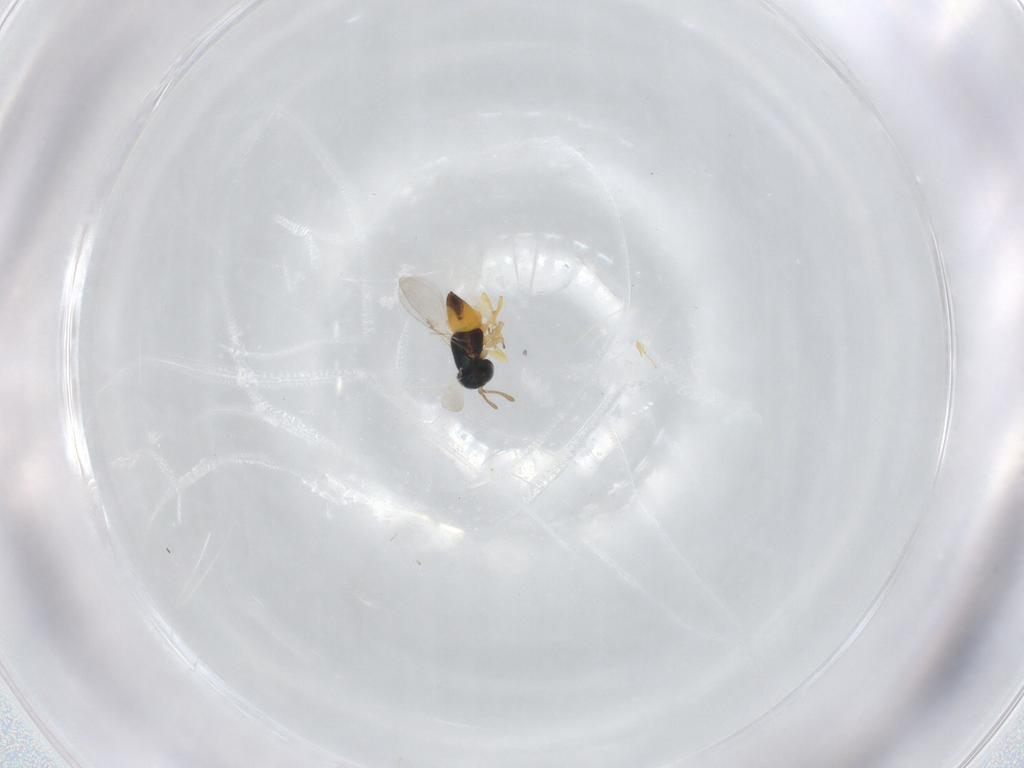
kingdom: Animalia
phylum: Arthropoda
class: Insecta
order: Hymenoptera
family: Platygastridae
